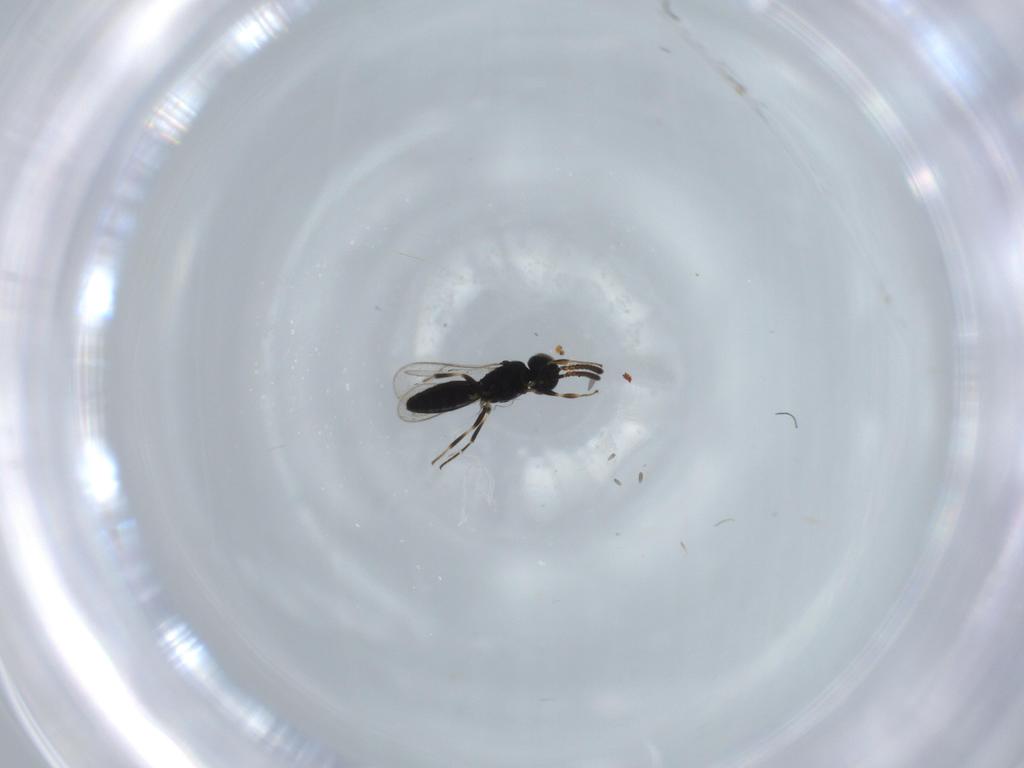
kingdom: Animalia
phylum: Arthropoda
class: Insecta
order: Hymenoptera
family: Scelionidae
